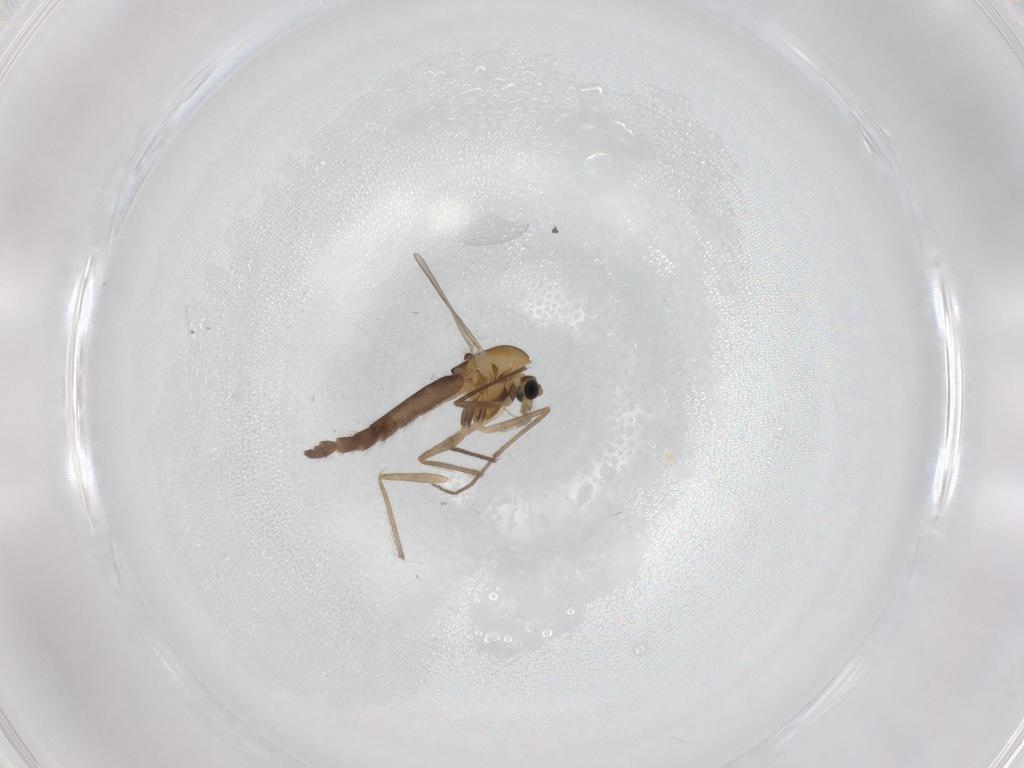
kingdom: Animalia
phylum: Arthropoda
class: Insecta
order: Diptera
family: Chironomidae
